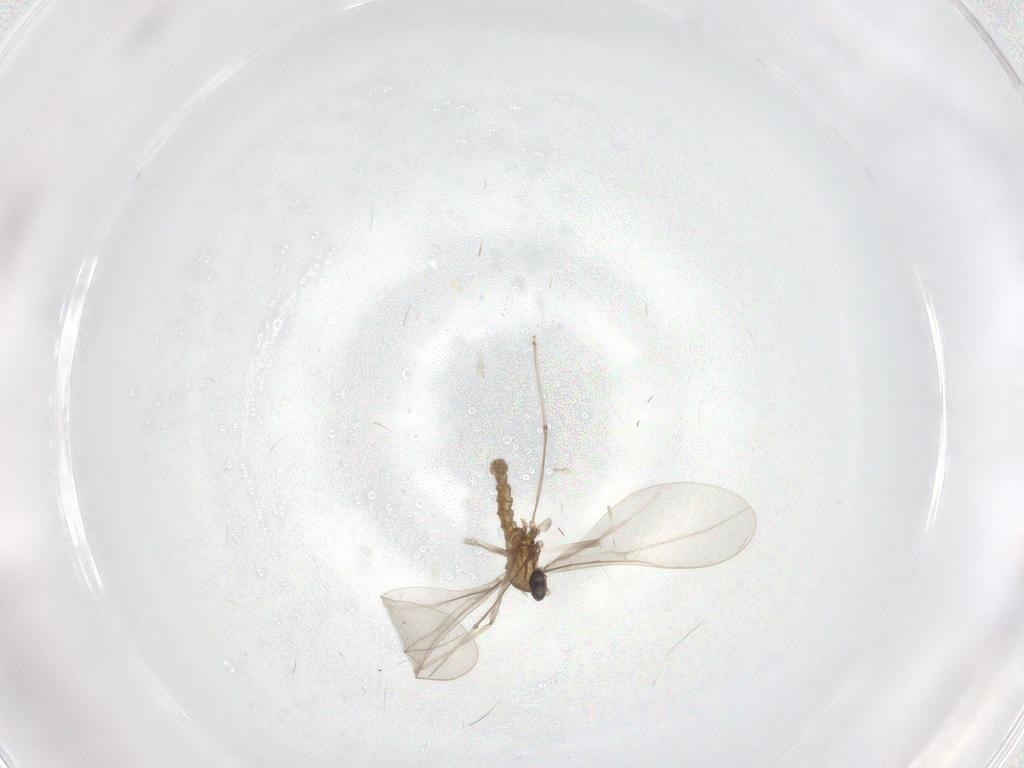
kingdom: Animalia
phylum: Arthropoda
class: Insecta
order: Diptera
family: Cecidomyiidae
